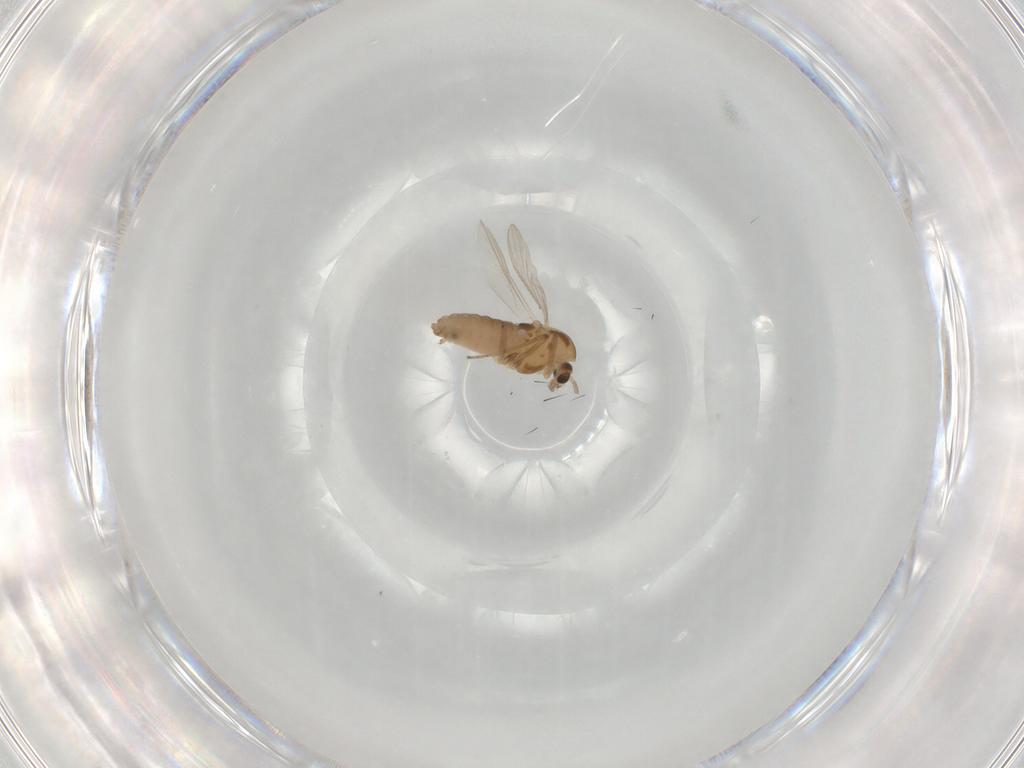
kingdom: Animalia
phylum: Arthropoda
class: Insecta
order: Diptera
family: Chironomidae
